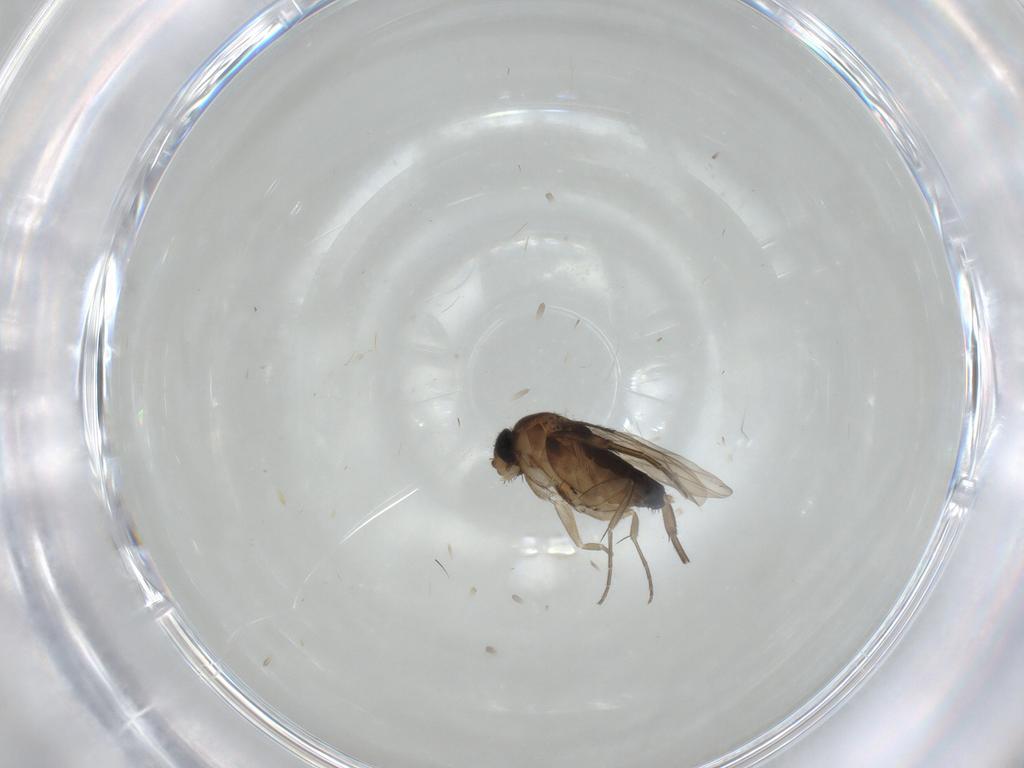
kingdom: Animalia
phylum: Arthropoda
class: Insecta
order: Diptera
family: Phoridae
